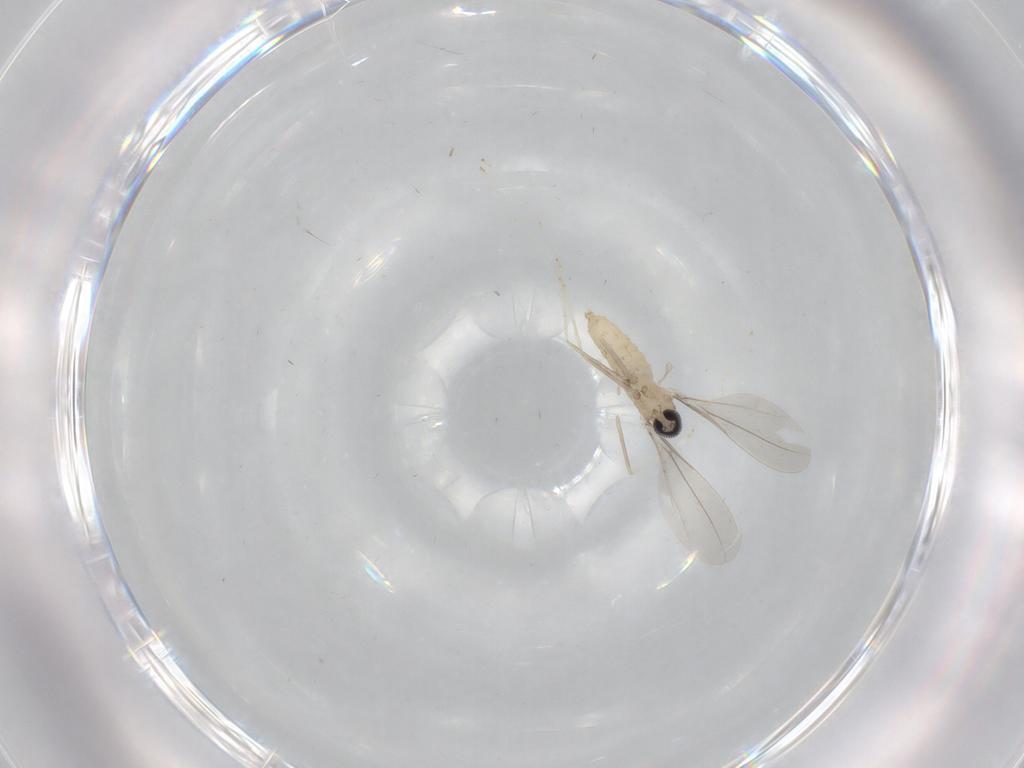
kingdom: Animalia
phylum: Arthropoda
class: Insecta
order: Diptera
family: Cecidomyiidae
